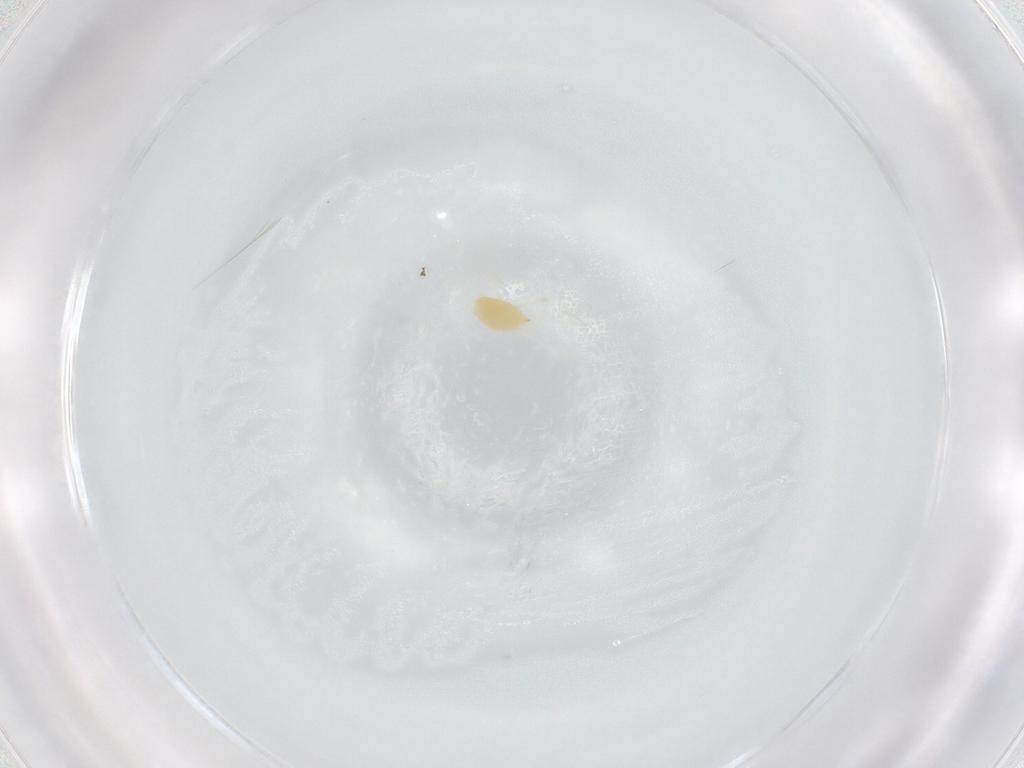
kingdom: Animalia
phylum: Arthropoda
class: Arachnida
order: Trombidiformes
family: Tetranychidae
